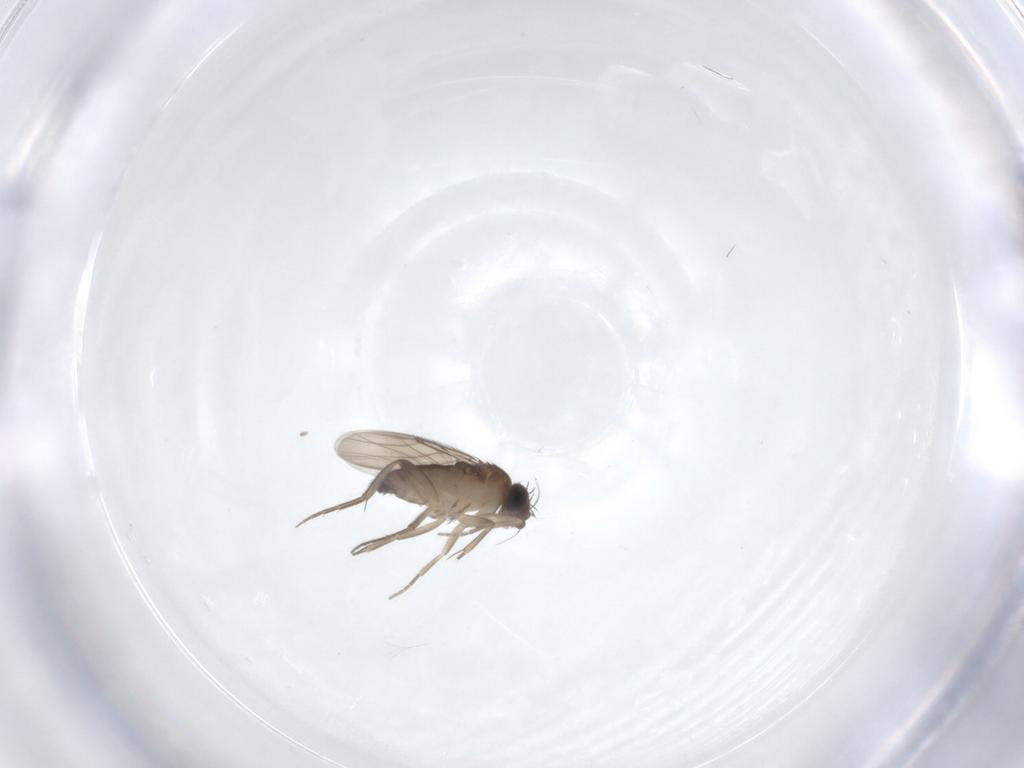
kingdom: Animalia
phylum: Arthropoda
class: Insecta
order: Diptera
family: Phoridae
